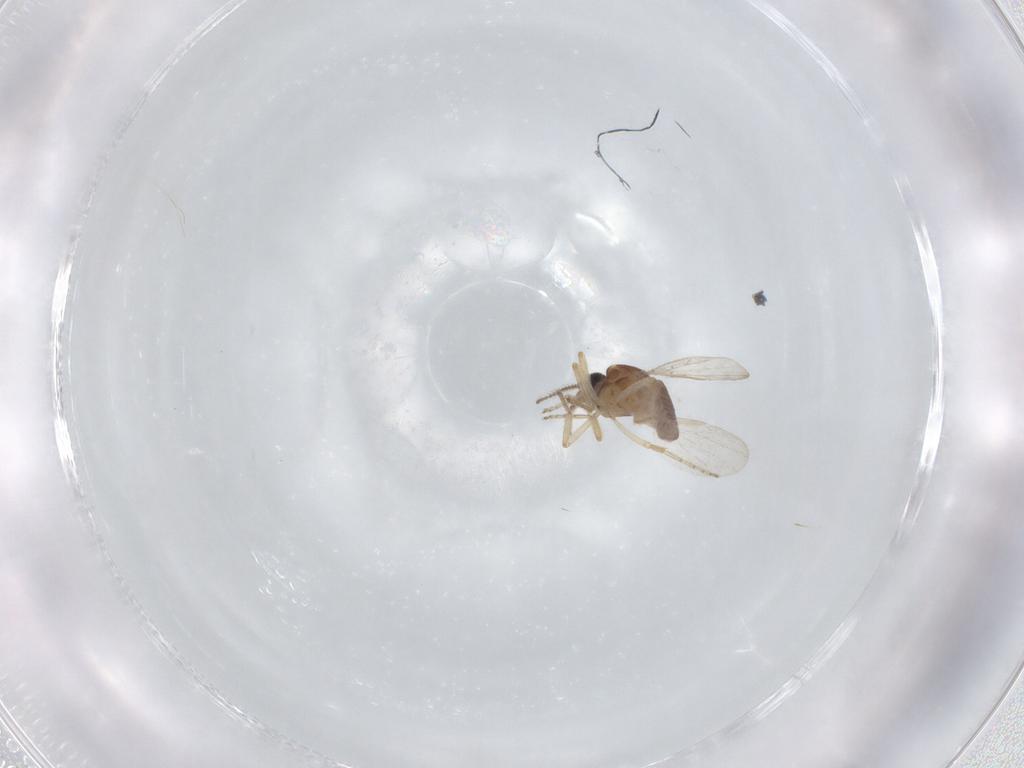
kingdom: Animalia
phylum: Arthropoda
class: Insecta
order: Diptera
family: Ceratopogonidae
